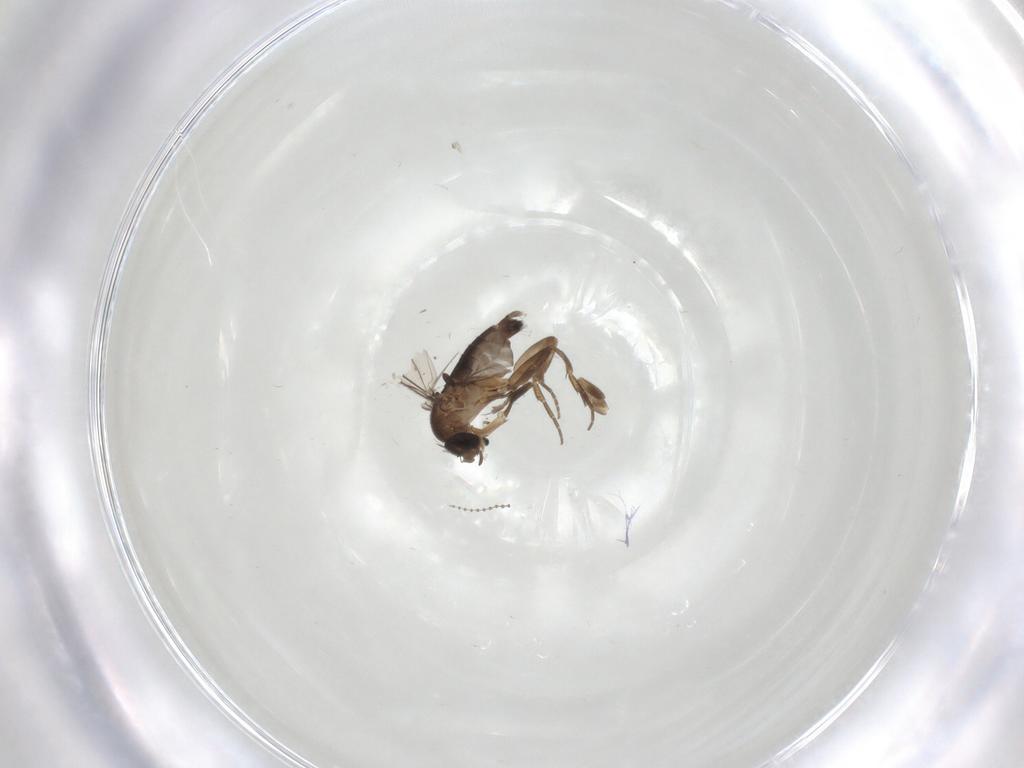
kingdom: Animalia
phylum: Arthropoda
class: Insecta
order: Diptera
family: Phoridae
